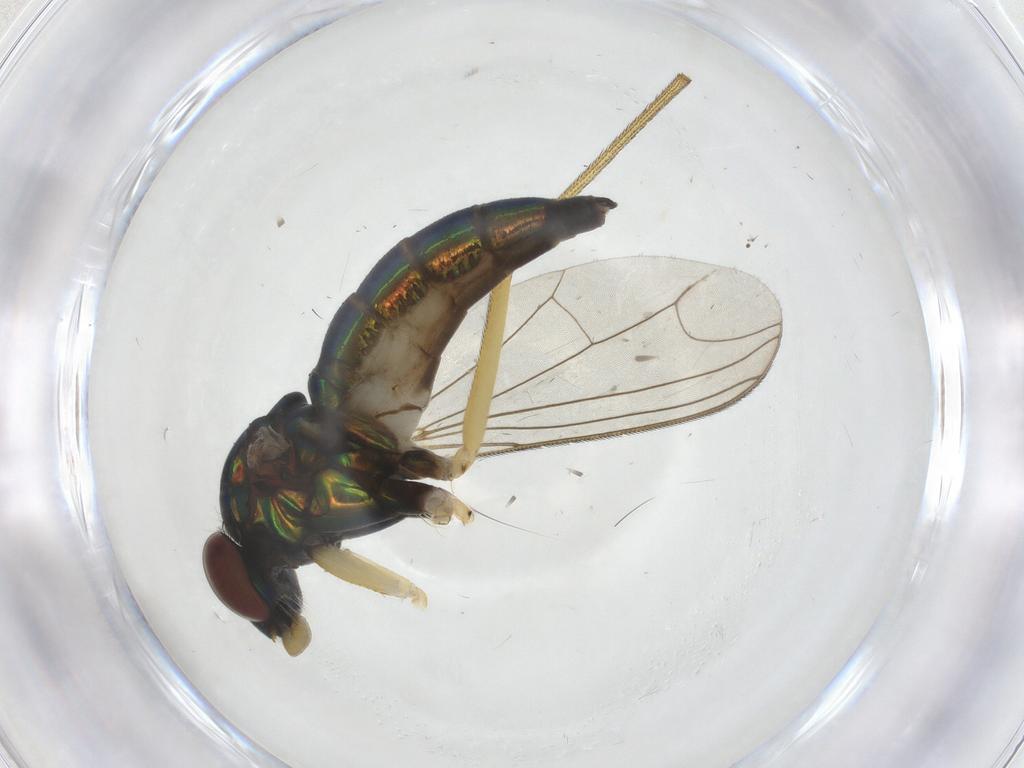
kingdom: Animalia
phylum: Arthropoda
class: Insecta
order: Diptera
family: Dolichopodidae
